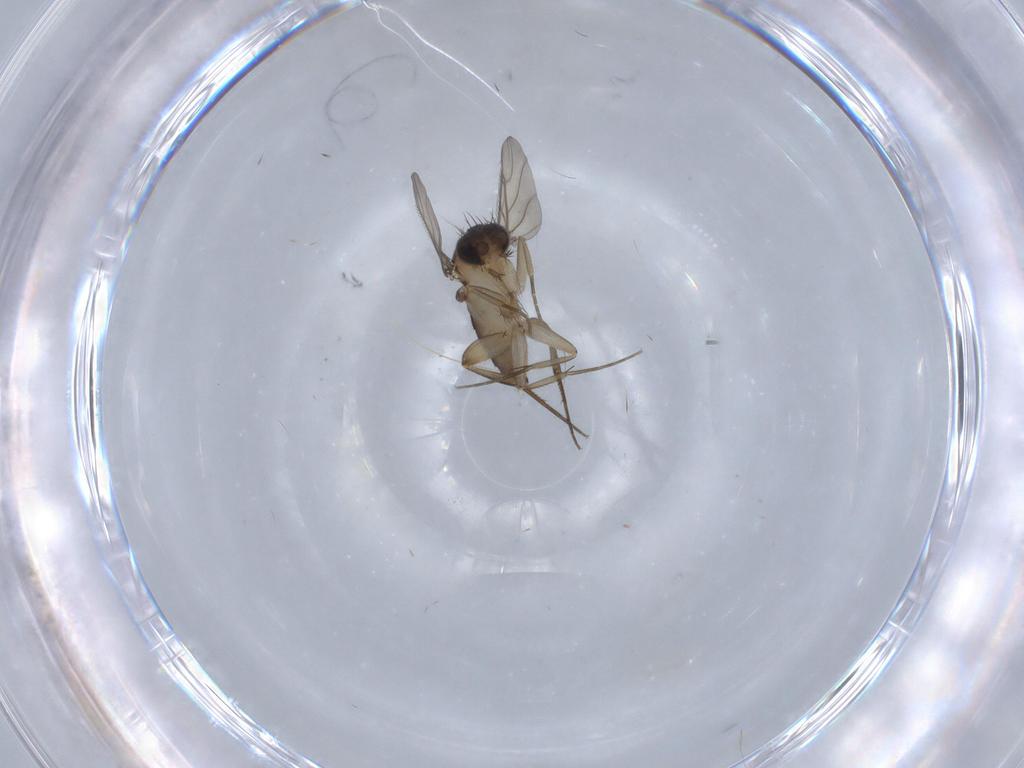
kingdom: Animalia
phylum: Arthropoda
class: Insecta
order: Diptera
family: Phoridae
